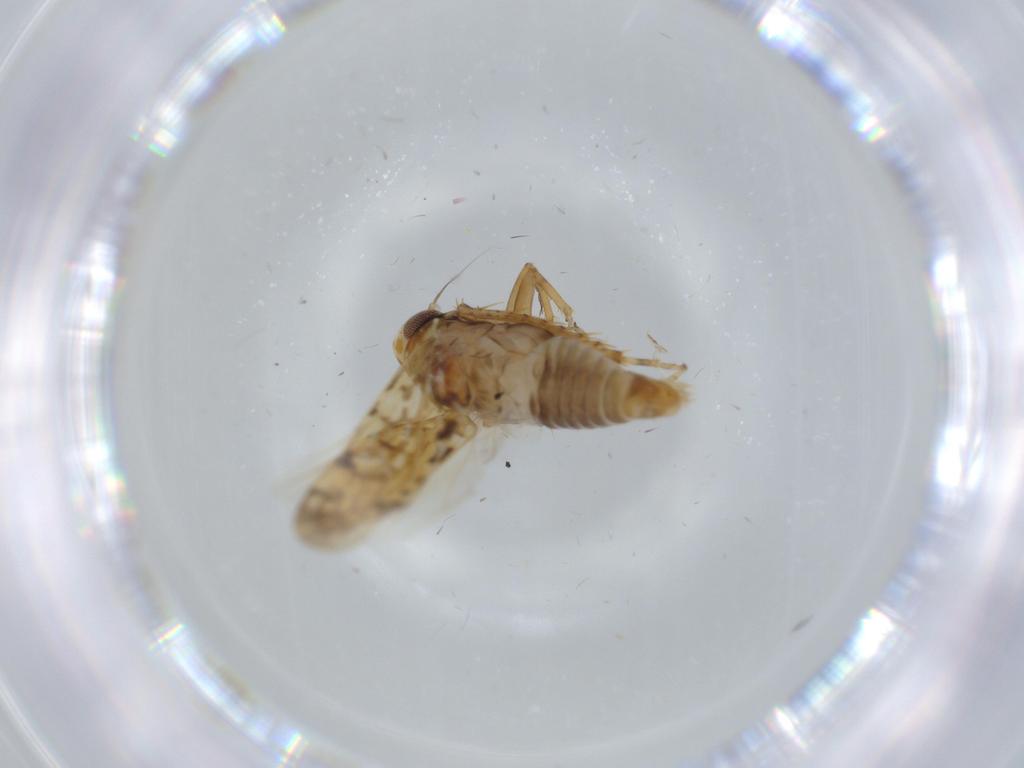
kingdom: Animalia
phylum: Arthropoda
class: Insecta
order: Hemiptera
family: Cicadellidae
